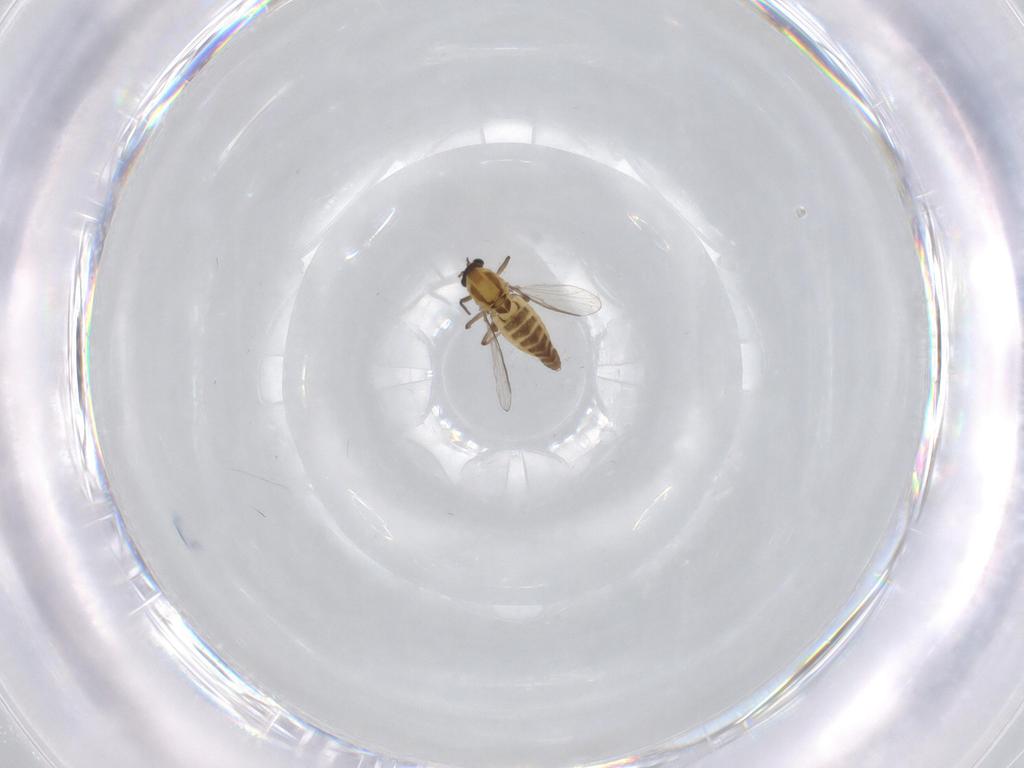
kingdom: Animalia
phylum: Arthropoda
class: Insecta
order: Diptera
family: Chironomidae
